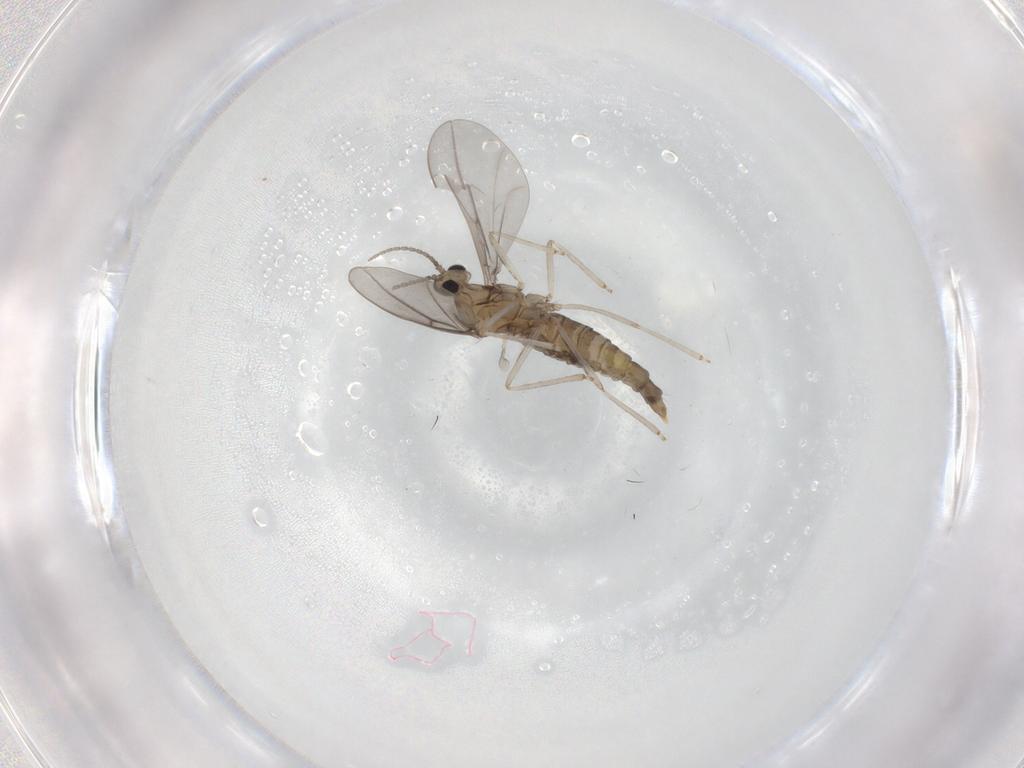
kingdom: Animalia
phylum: Arthropoda
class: Insecta
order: Diptera
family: Cecidomyiidae
